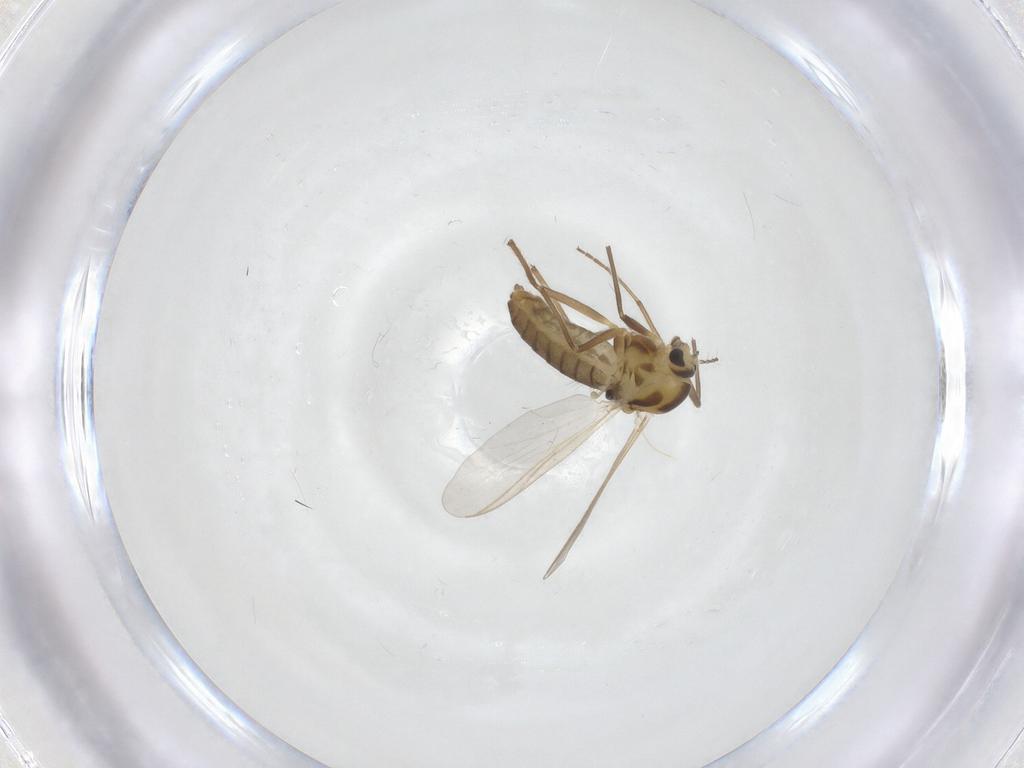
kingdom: Animalia
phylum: Arthropoda
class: Insecta
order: Diptera
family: Chironomidae
